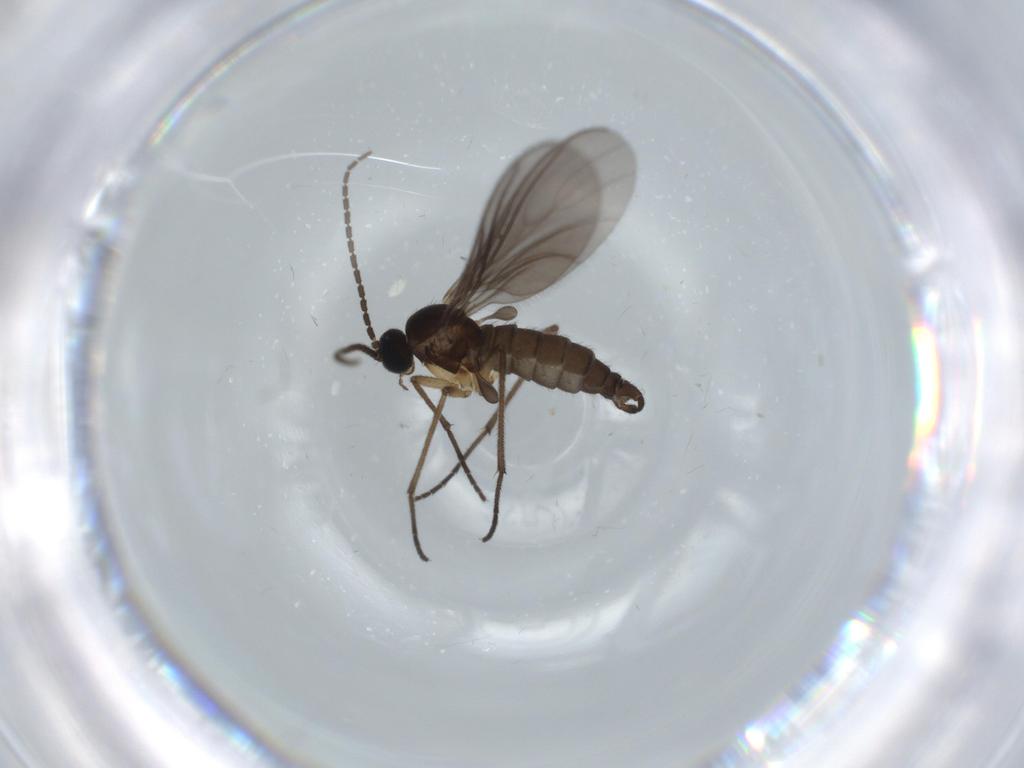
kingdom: Animalia
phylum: Arthropoda
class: Insecta
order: Diptera
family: Sciaridae
